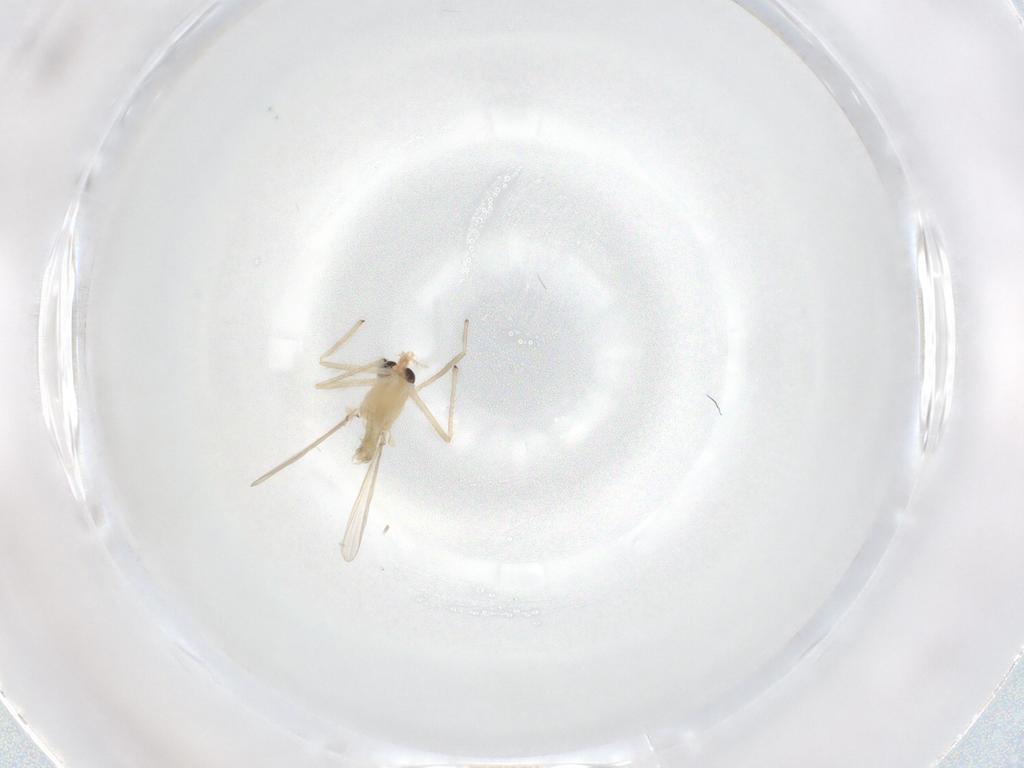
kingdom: Animalia
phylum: Arthropoda
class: Insecta
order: Diptera
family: Chironomidae
